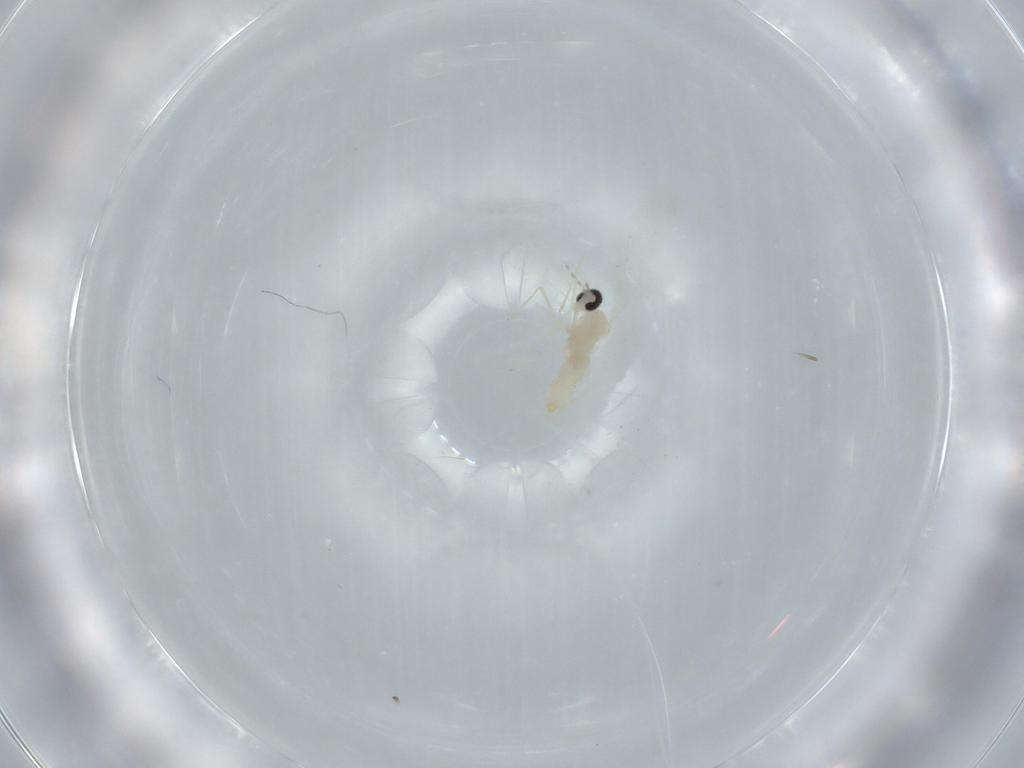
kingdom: Animalia
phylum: Arthropoda
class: Insecta
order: Diptera
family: Cecidomyiidae
